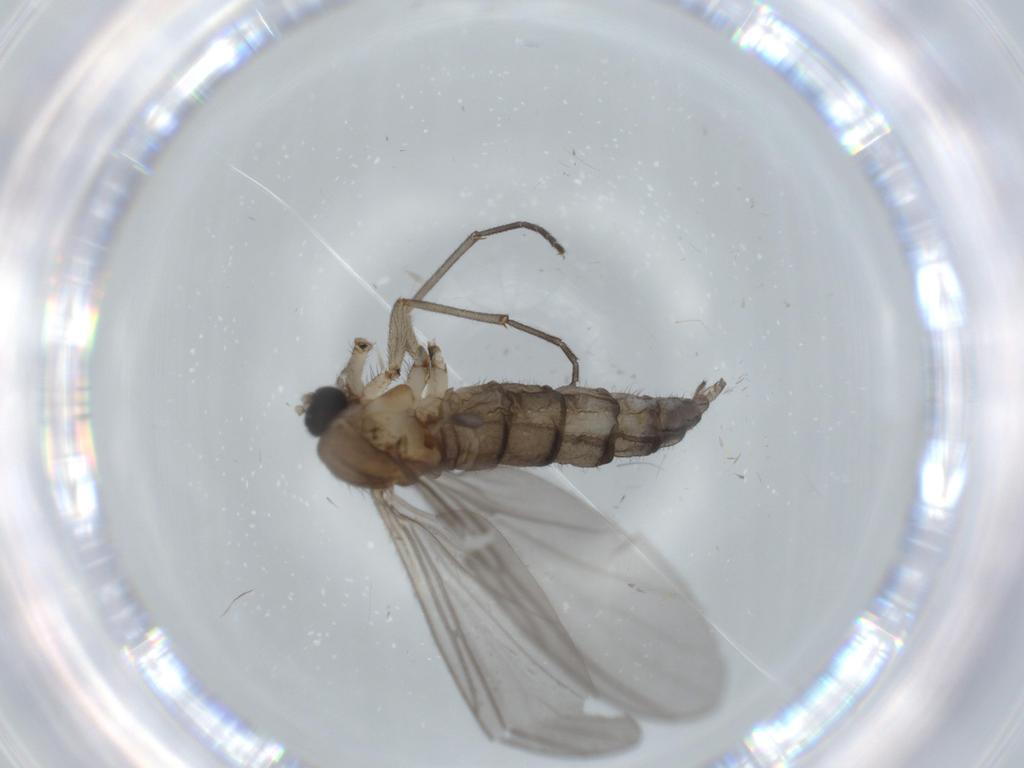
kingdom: Animalia
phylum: Arthropoda
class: Insecta
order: Diptera
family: Sciaridae
